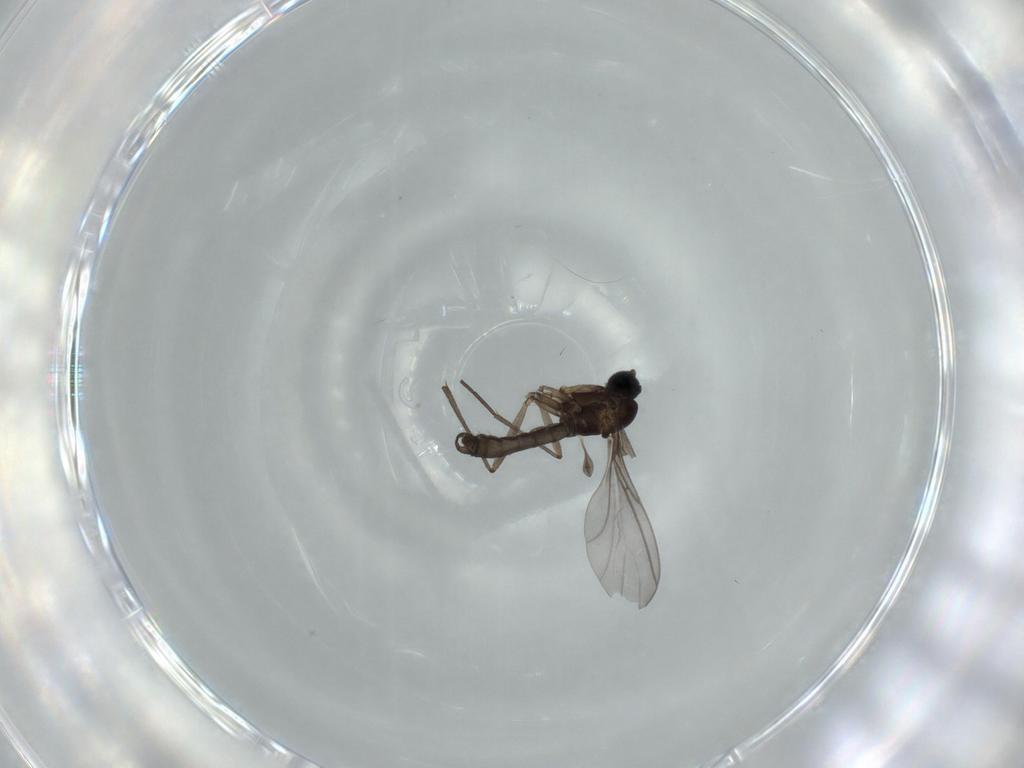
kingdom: Animalia
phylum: Arthropoda
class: Insecta
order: Diptera
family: Sciaridae
